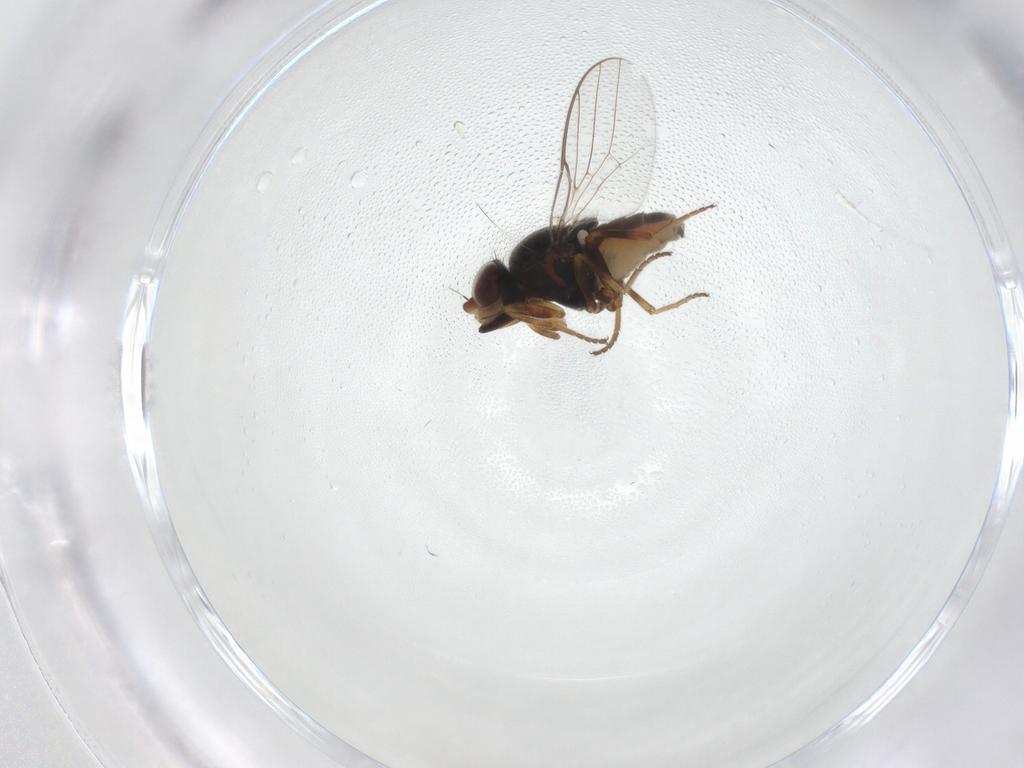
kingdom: Animalia
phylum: Arthropoda
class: Insecta
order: Diptera
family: Chloropidae
